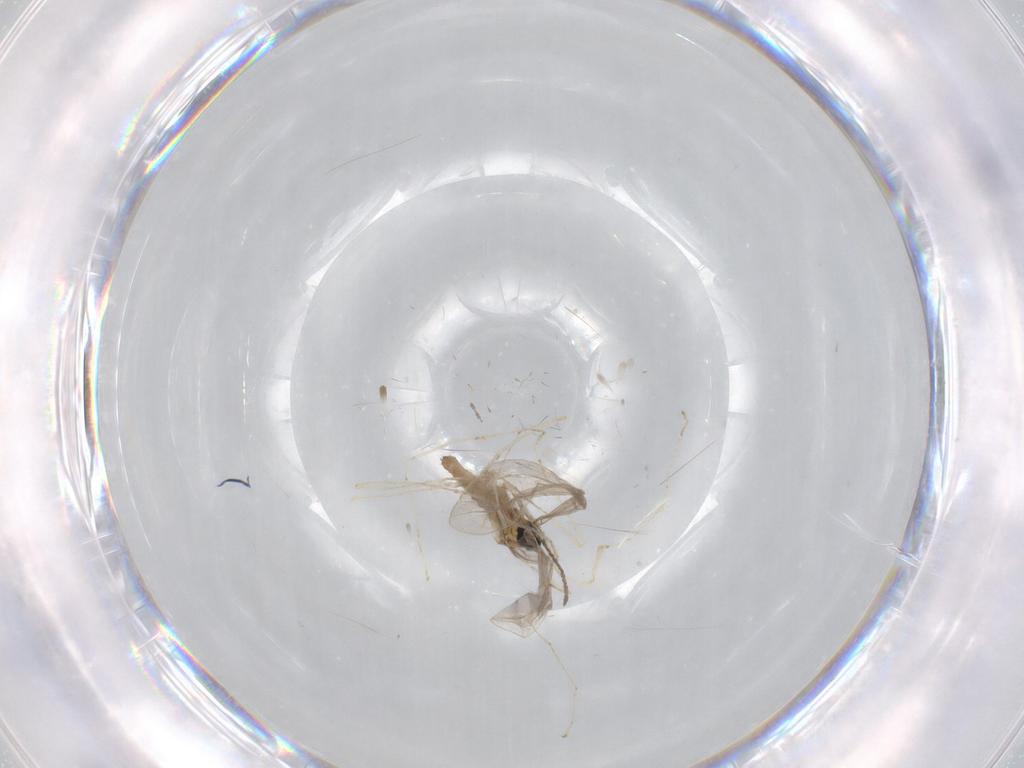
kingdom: Animalia
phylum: Arthropoda
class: Insecta
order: Diptera
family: Cecidomyiidae
